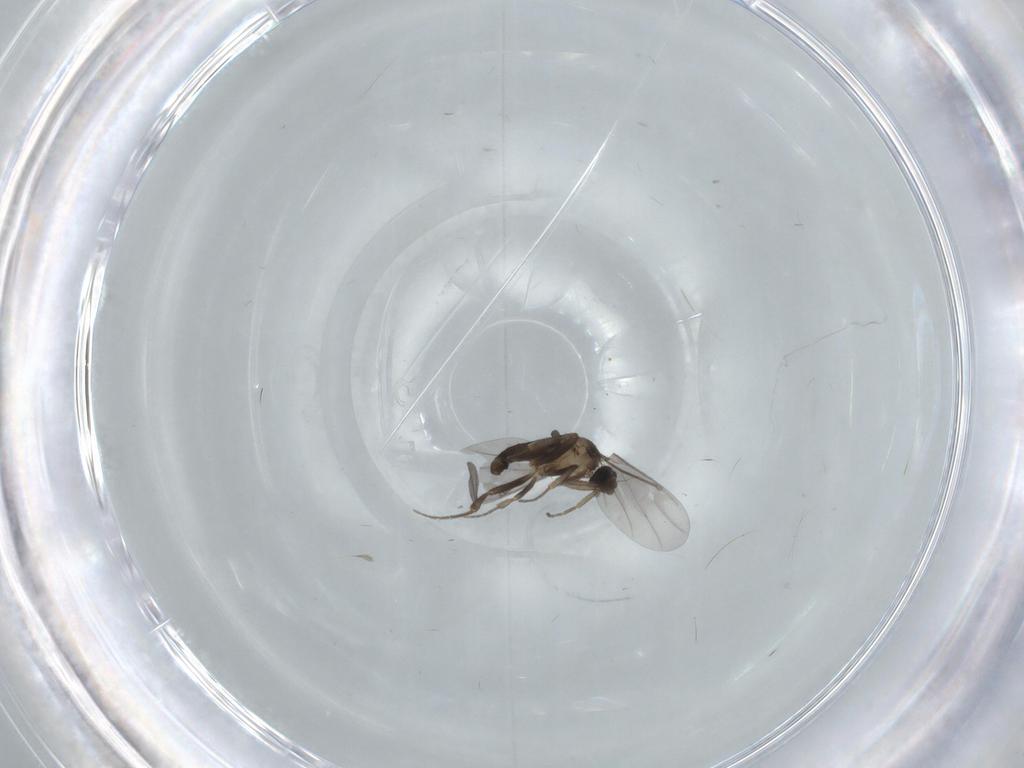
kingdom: Animalia
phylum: Arthropoda
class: Insecta
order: Diptera
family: Phoridae
